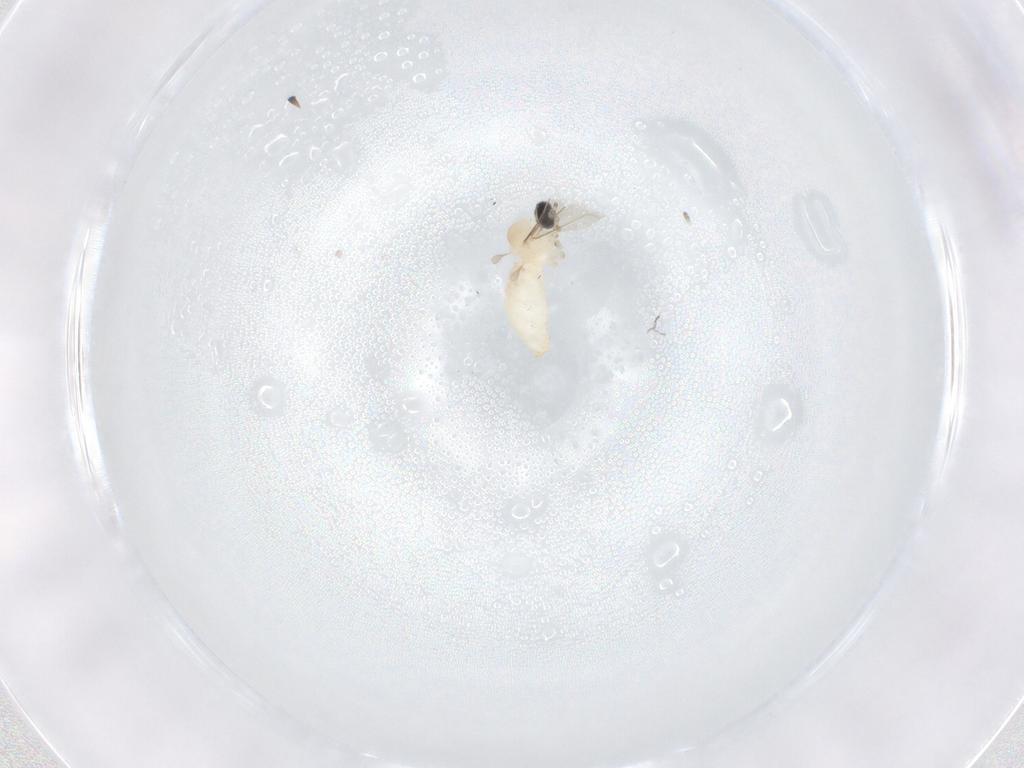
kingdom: Animalia
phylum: Arthropoda
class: Insecta
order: Diptera
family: Cecidomyiidae
